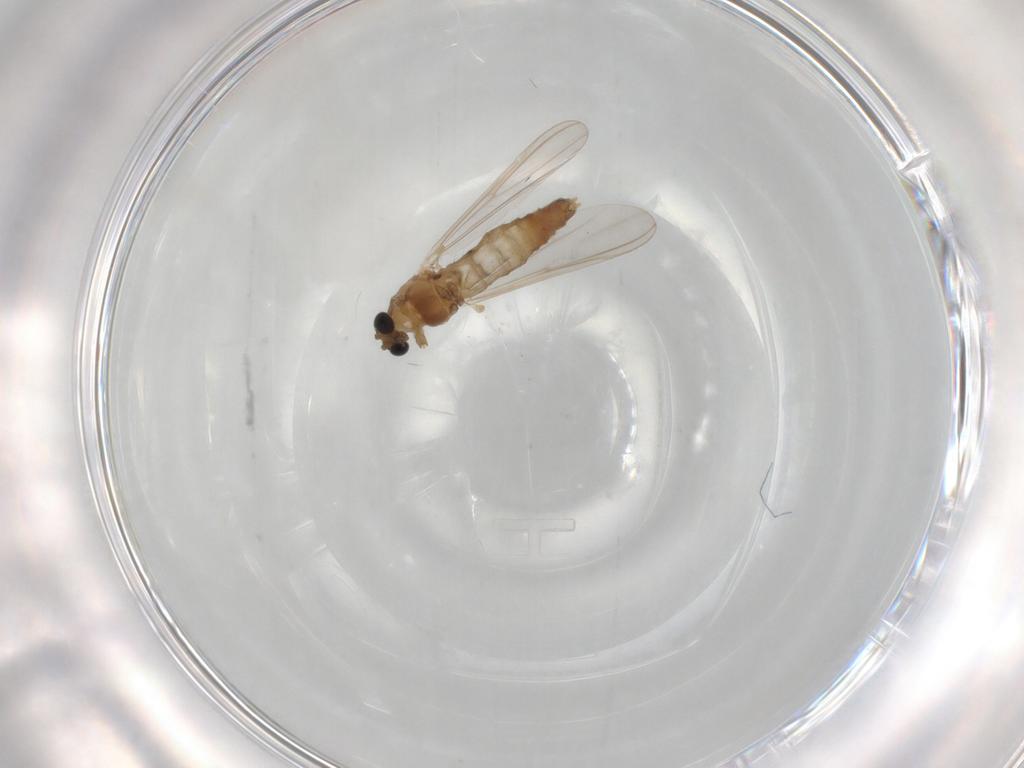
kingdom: Animalia
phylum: Arthropoda
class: Insecta
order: Diptera
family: Chironomidae
